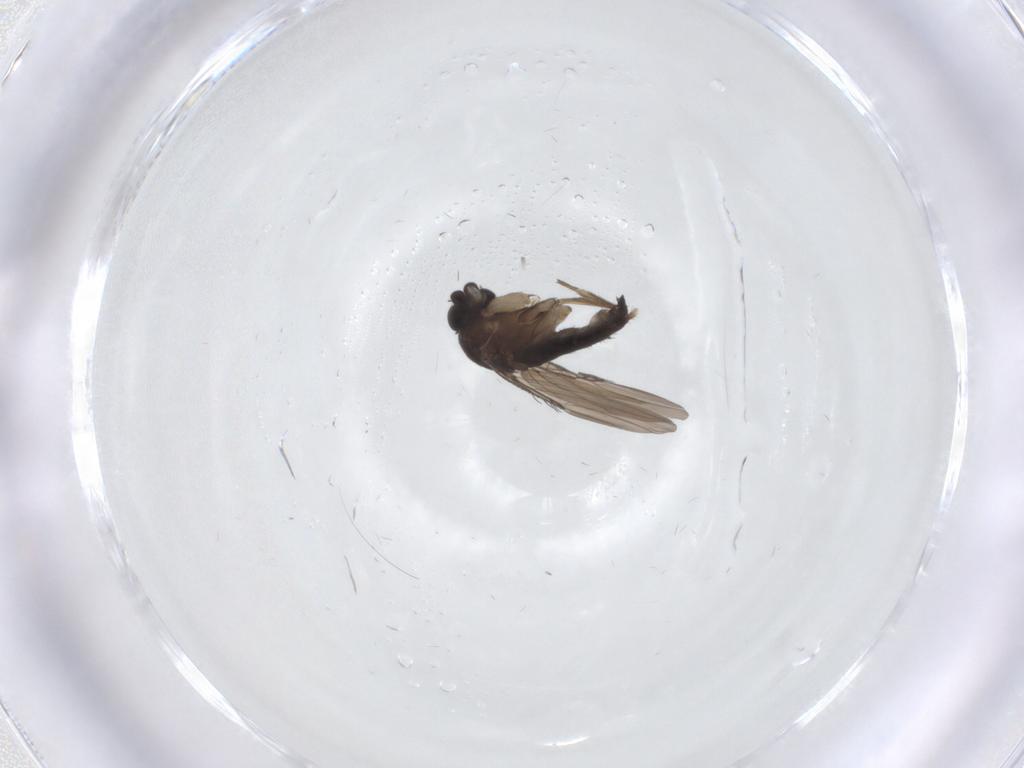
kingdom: Animalia
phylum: Arthropoda
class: Insecta
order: Diptera
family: Phoridae
